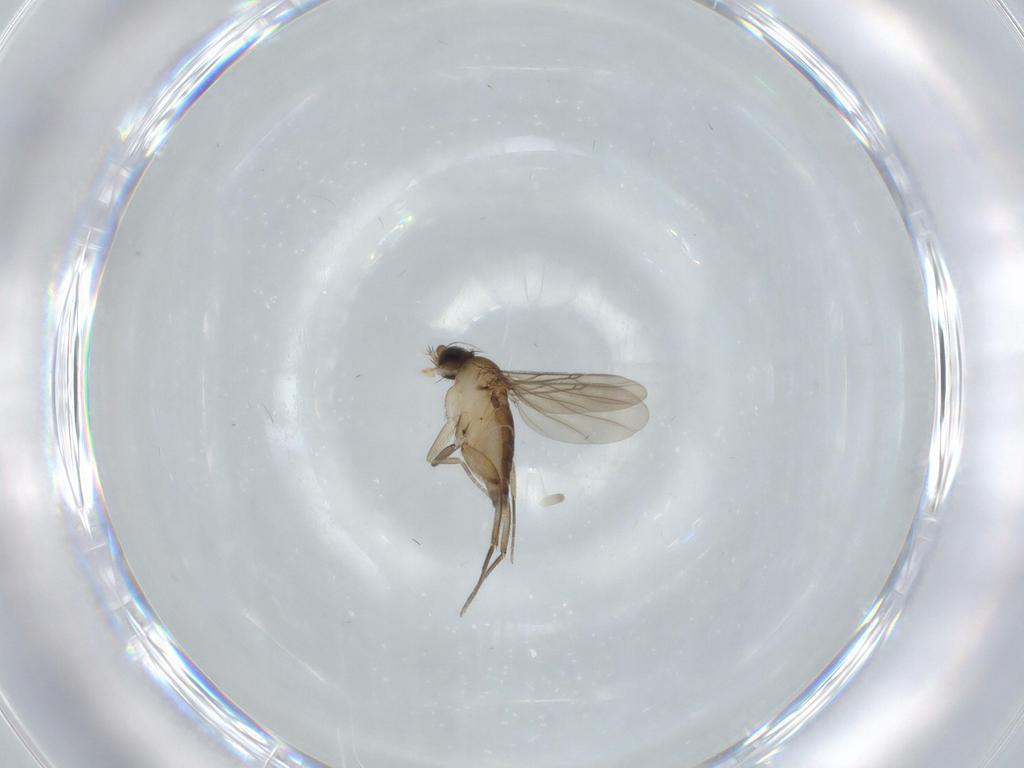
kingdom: Animalia
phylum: Arthropoda
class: Insecta
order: Diptera
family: Phoridae
